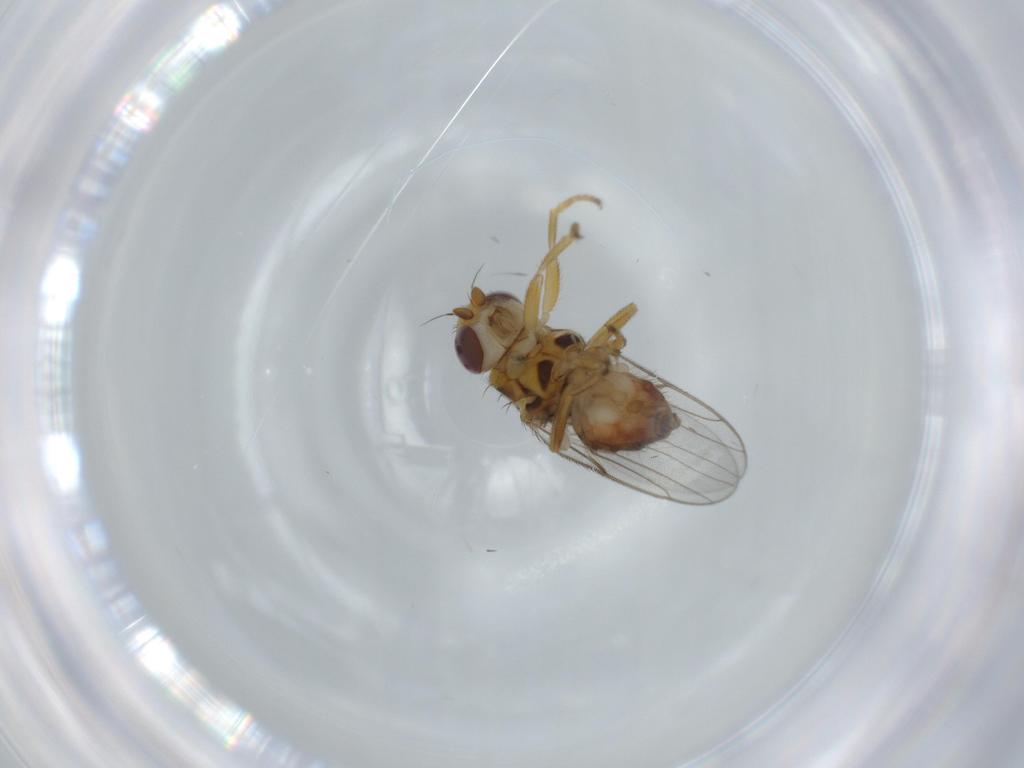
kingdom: Animalia
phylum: Arthropoda
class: Insecta
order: Diptera
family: Chloropidae
